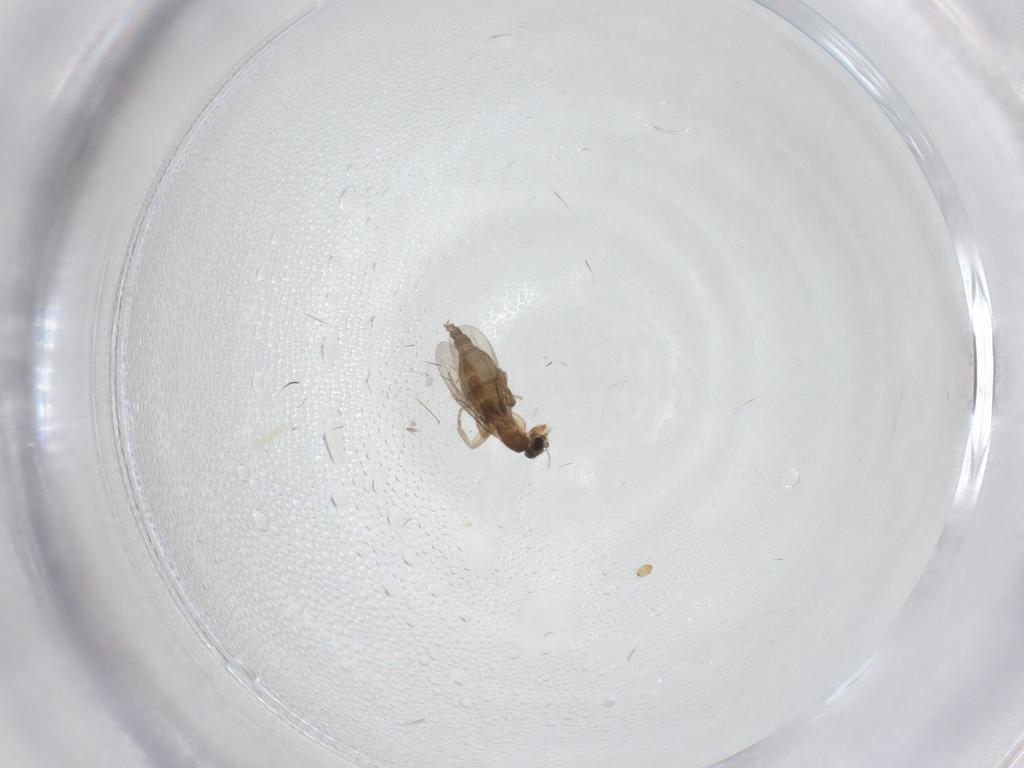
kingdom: Animalia
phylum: Arthropoda
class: Insecta
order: Diptera
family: Phoridae
